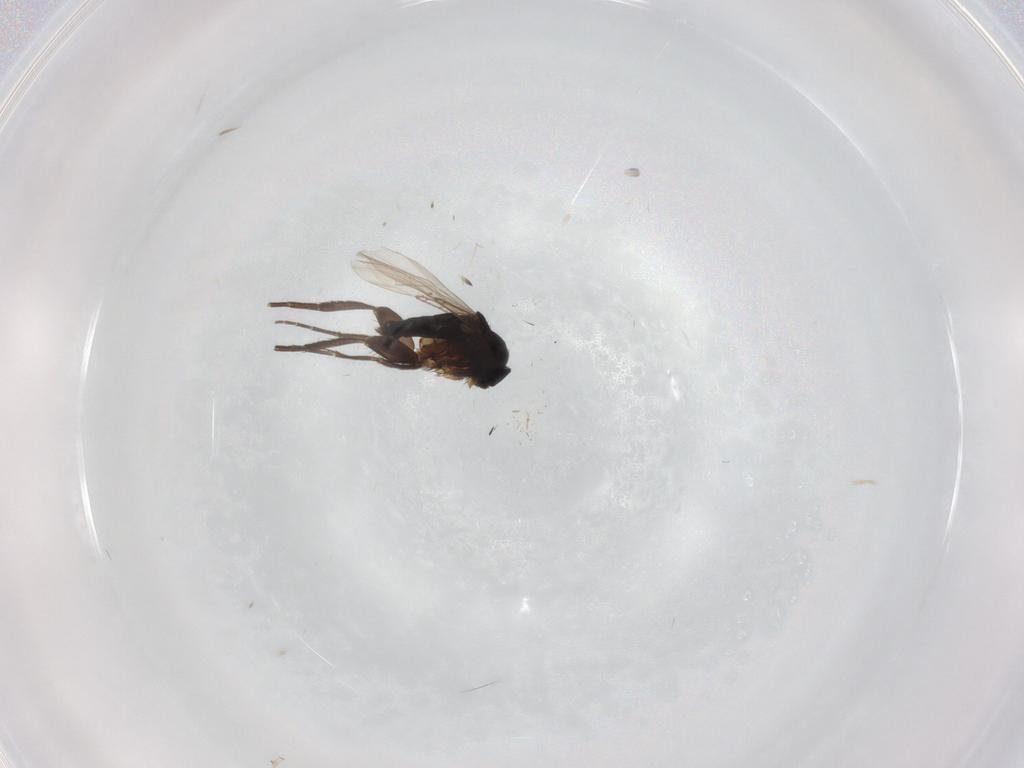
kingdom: Animalia
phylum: Arthropoda
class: Insecta
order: Diptera
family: Phoridae
